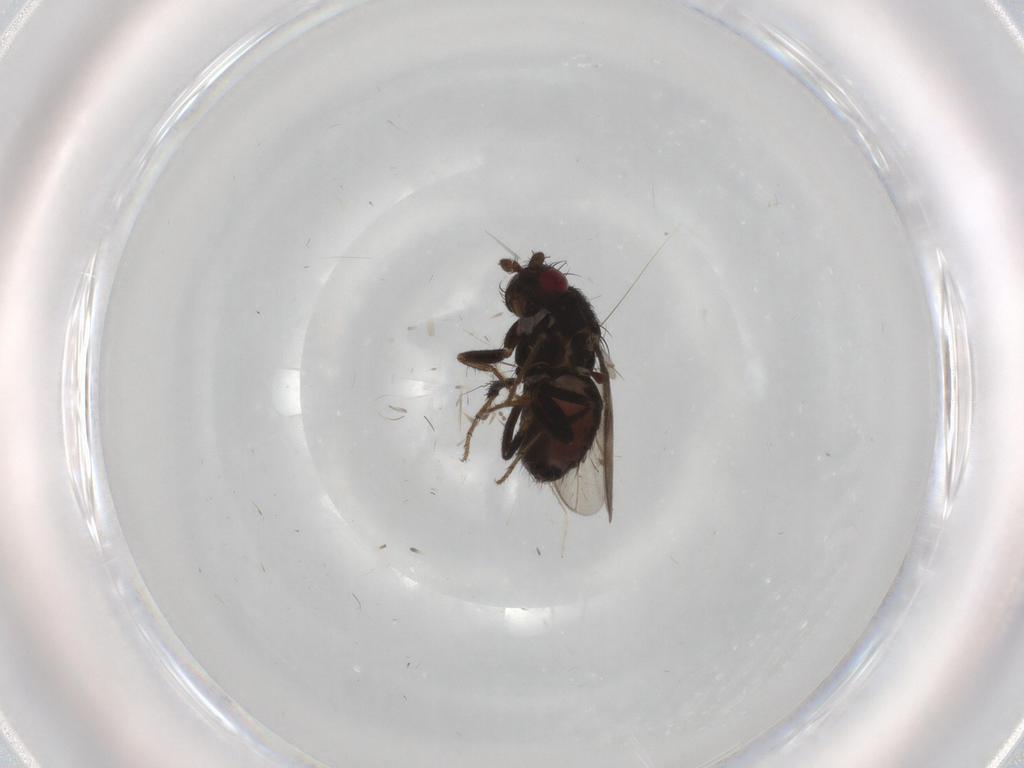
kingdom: Animalia
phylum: Arthropoda
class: Insecta
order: Diptera
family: Sphaeroceridae
